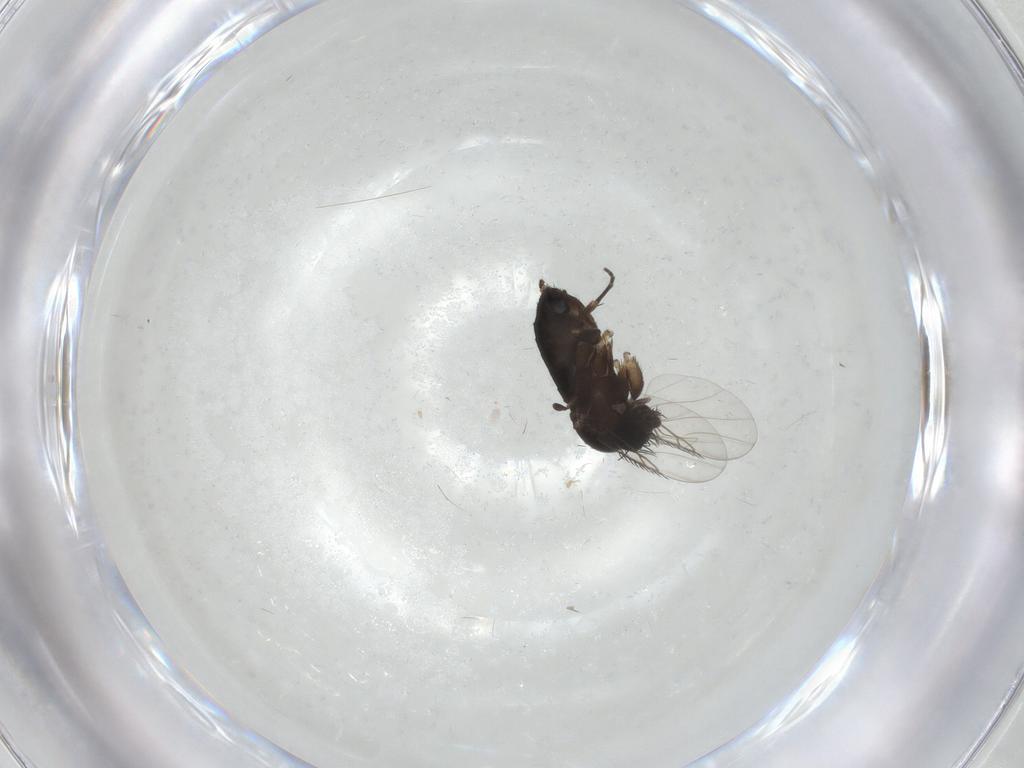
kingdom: Animalia
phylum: Arthropoda
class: Insecta
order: Diptera
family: Phoridae
